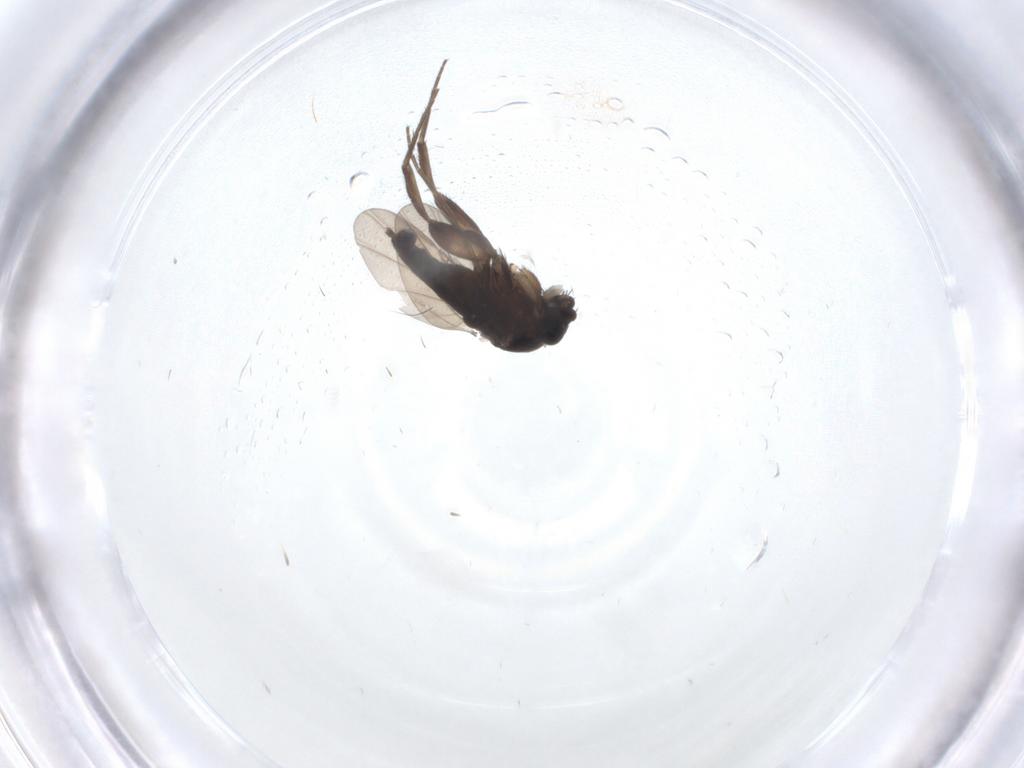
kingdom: Animalia
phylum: Arthropoda
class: Insecta
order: Diptera
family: Phoridae
